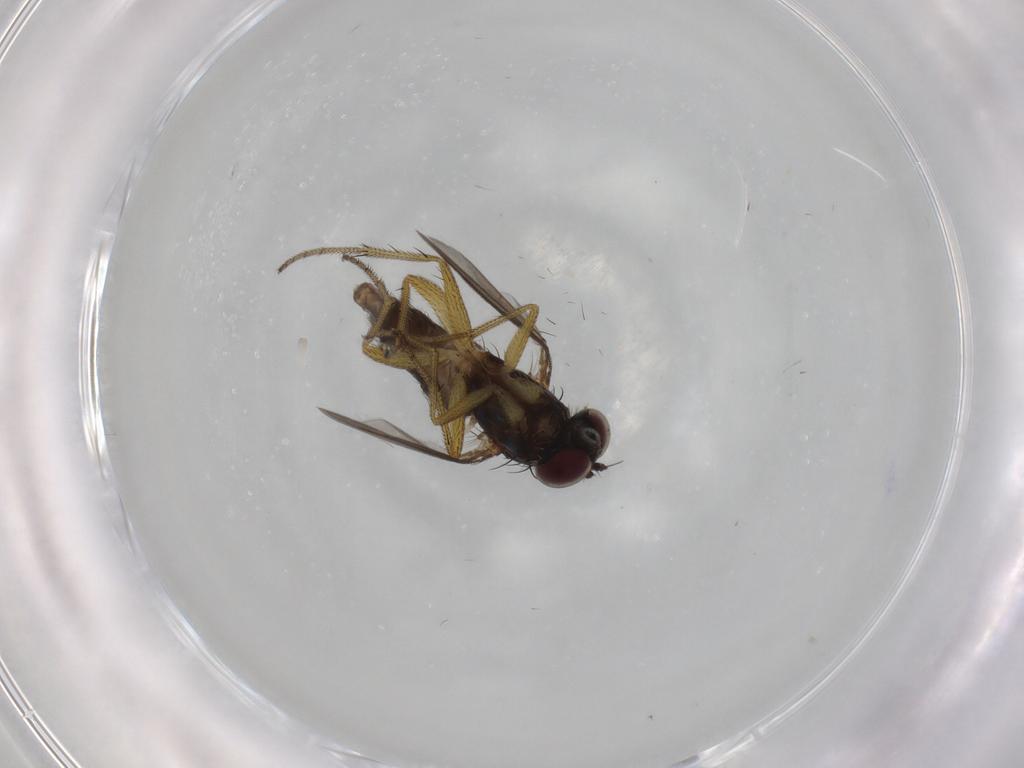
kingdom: Animalia
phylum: Arthropoda
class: Insecta
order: Diptera
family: Dolichopodidae
